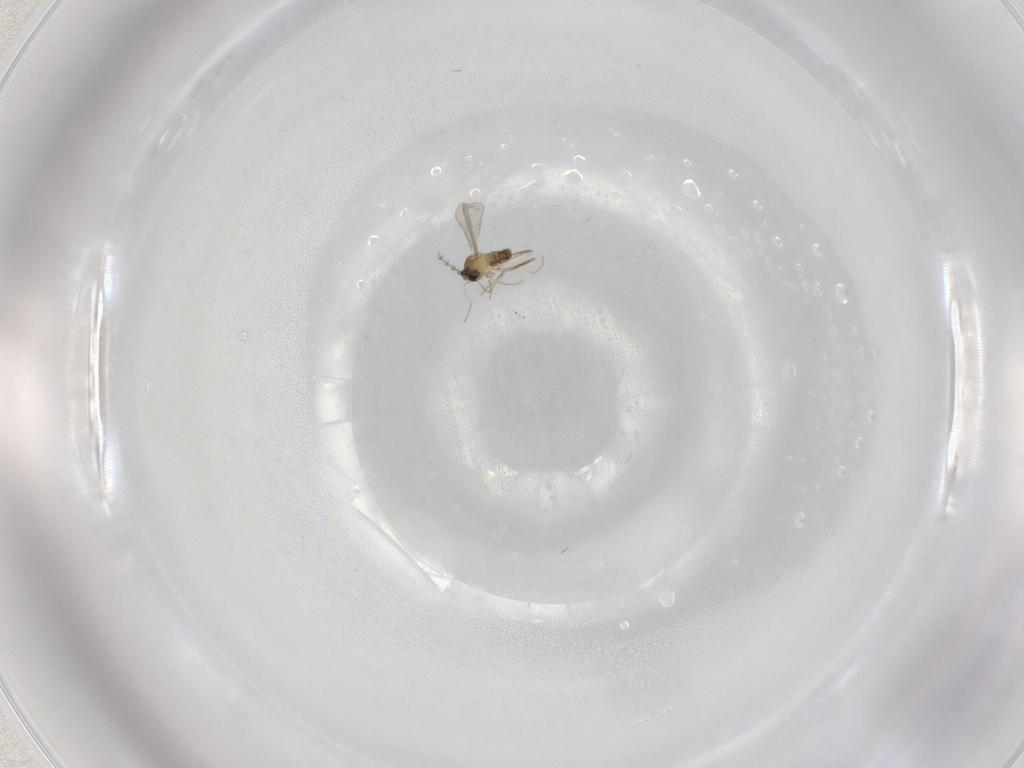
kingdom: Animalia
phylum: Arthropoda
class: Insecta
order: Diptera
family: Cecidomyiidae
